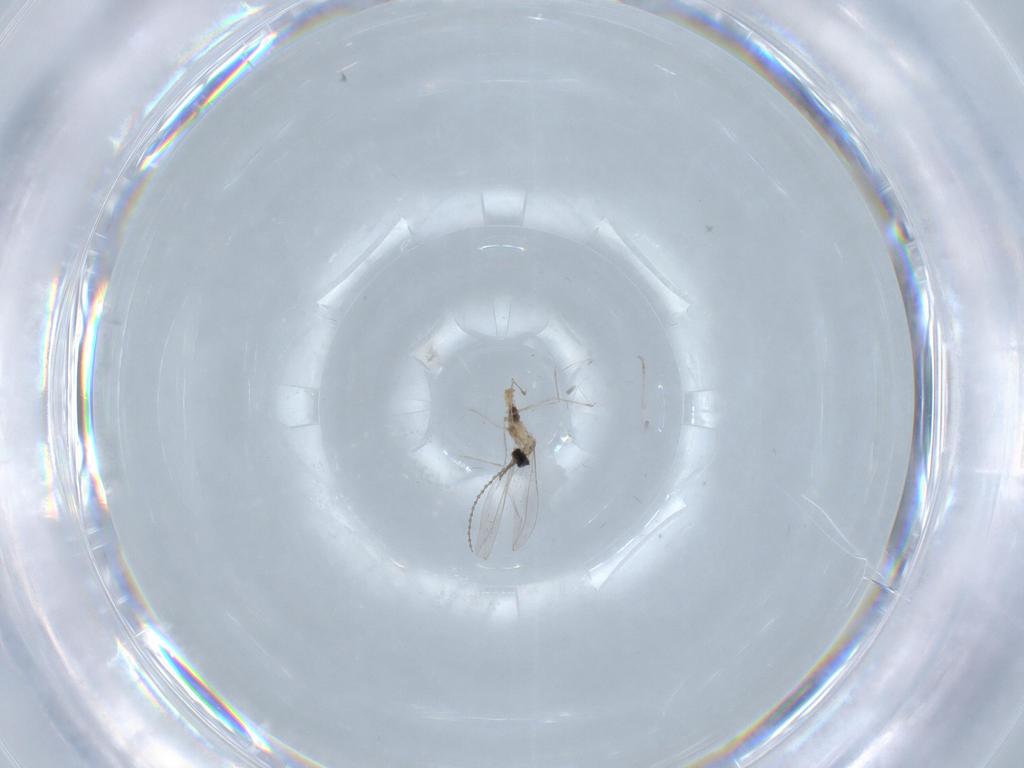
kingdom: Animalia
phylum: Arthropoda
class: Insecta
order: Diptera
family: Cecidomyiidae
